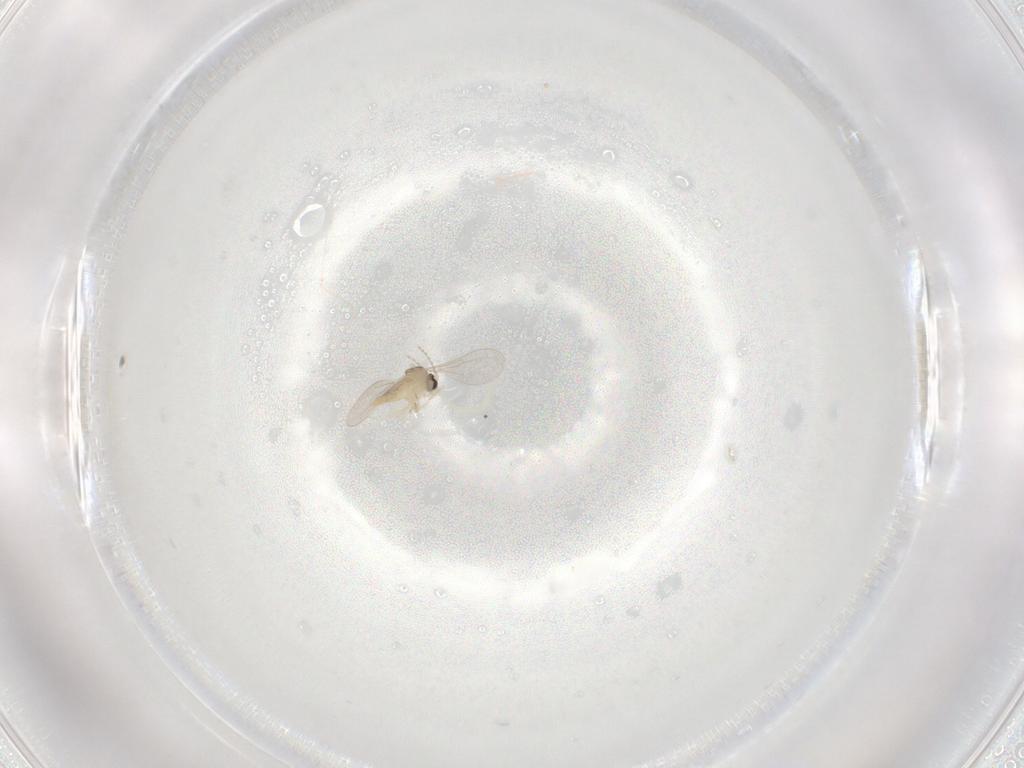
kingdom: Animalia
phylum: Arthropoda
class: Insecta
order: Diptera
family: Cecidomyiidae
